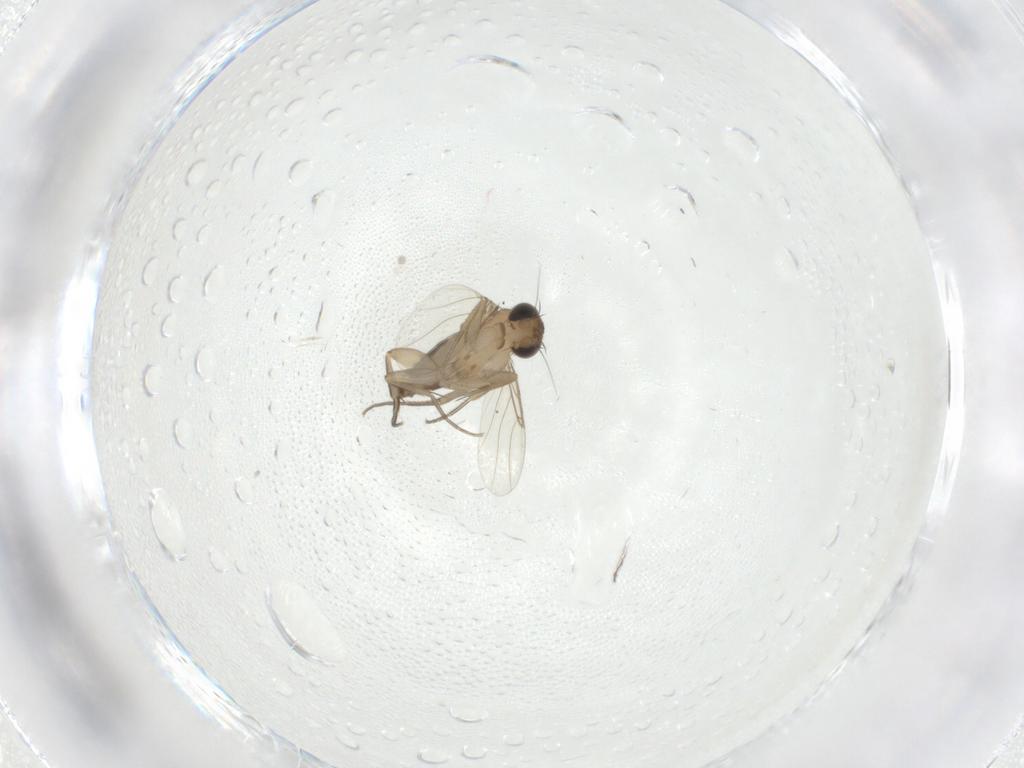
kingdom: Animalia
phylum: Arthropoda
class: Insecta
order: Diptera
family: Phoridae
